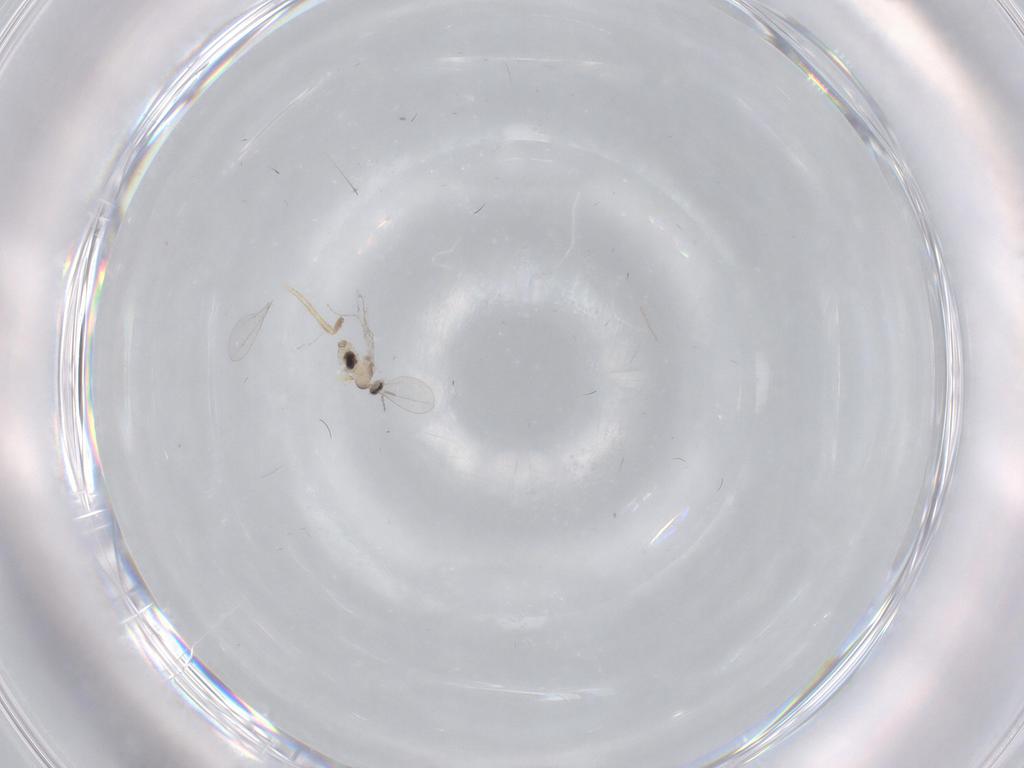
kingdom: Animalia
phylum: Arthropoda
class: Insecta
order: Diptera
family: Cecidomyiidae
